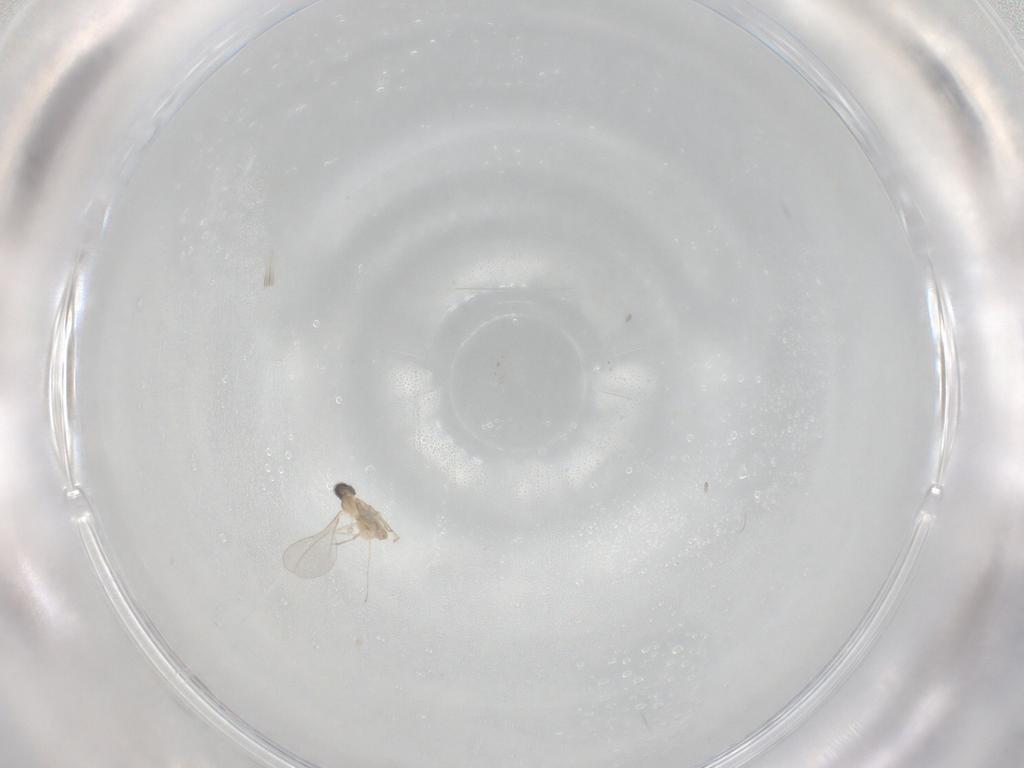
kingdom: Animalia
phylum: Arthropoda
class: Insecta
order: Diptera
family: Cecidomyiidae
